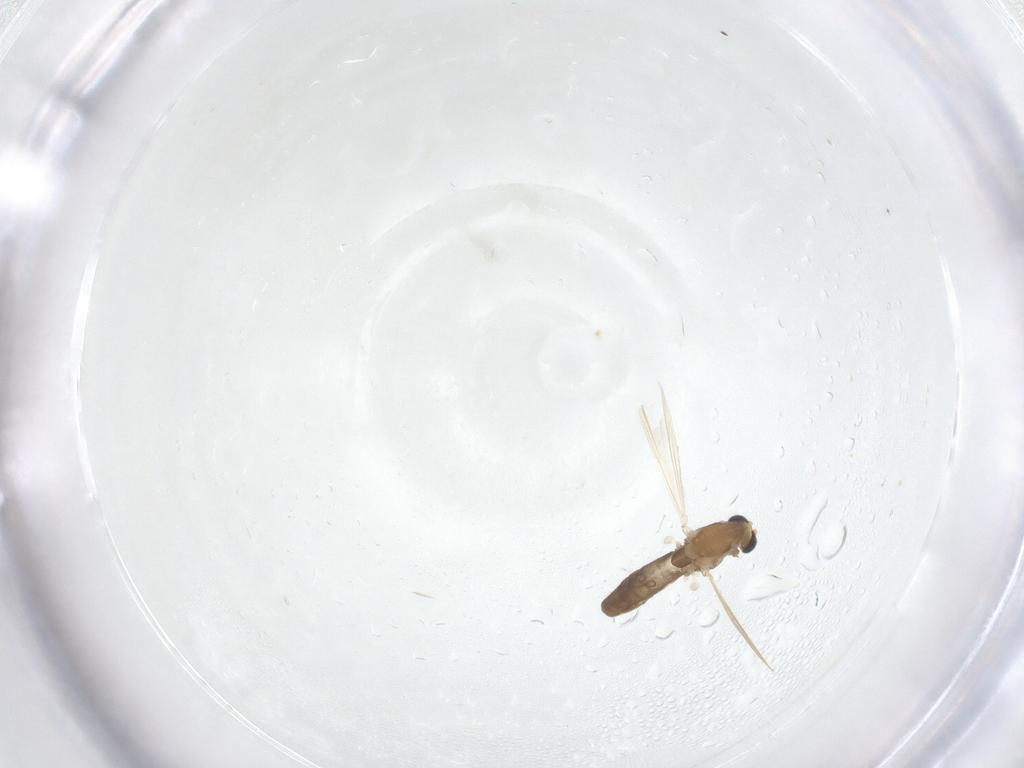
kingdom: Animalia
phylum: Arthropoda
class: Insecta
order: Diptera
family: Chironomidae
